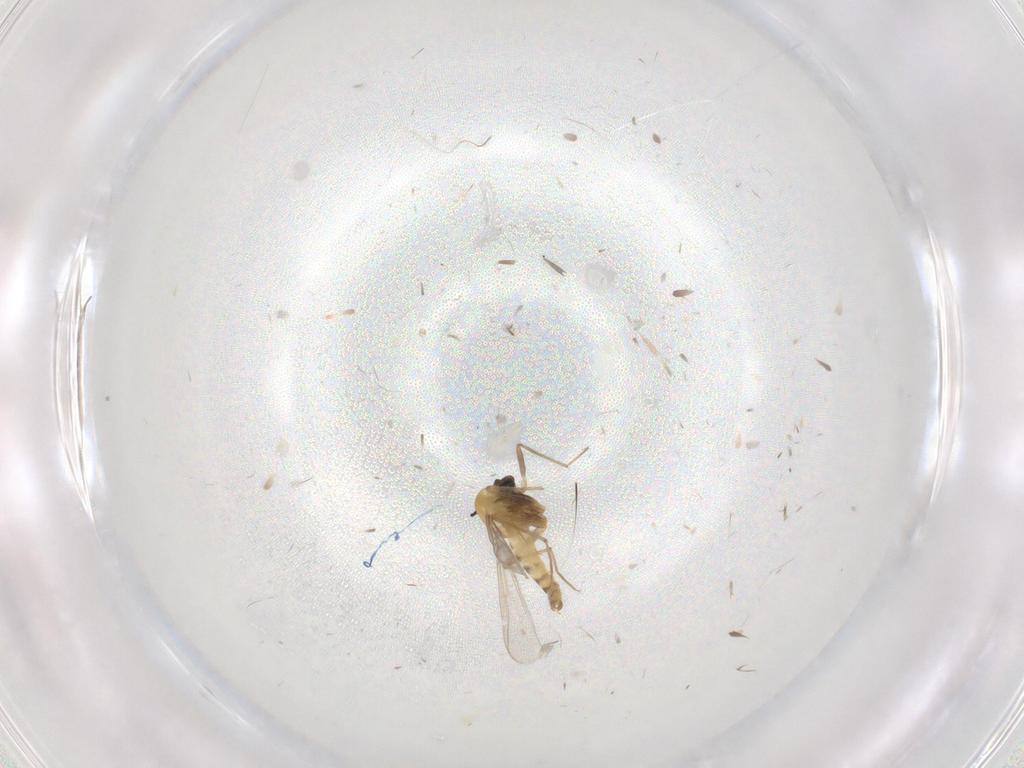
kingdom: Animalia
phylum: Arthropoda
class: Insecta
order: Diptera
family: Chironomidae
